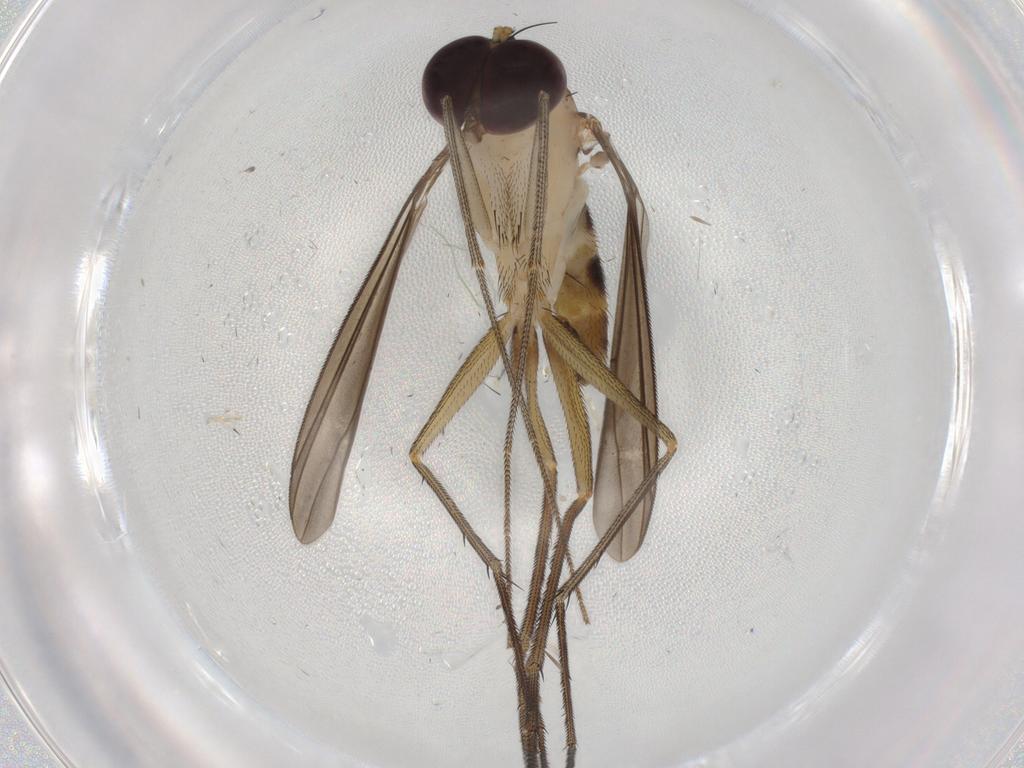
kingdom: Animalia
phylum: Arthropoda
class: Insecta
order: Diptera
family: Dolichopodidae
